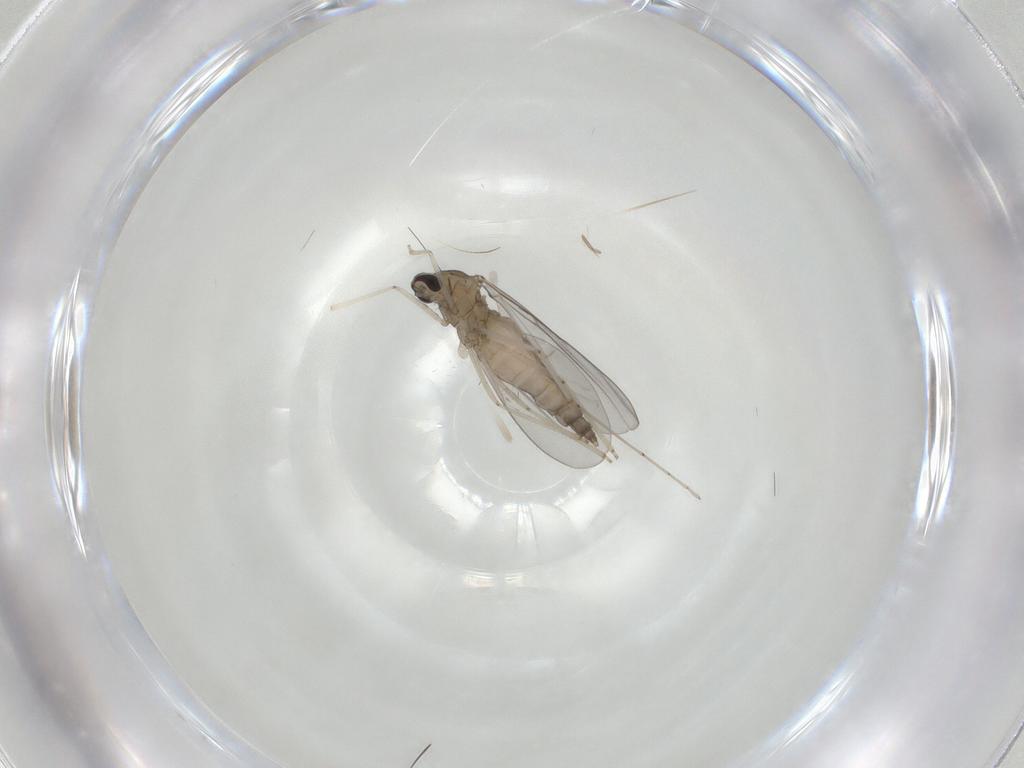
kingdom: Animalia
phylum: Arthropoda
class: Insecta
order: Diptera
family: Cecidomyiidae
